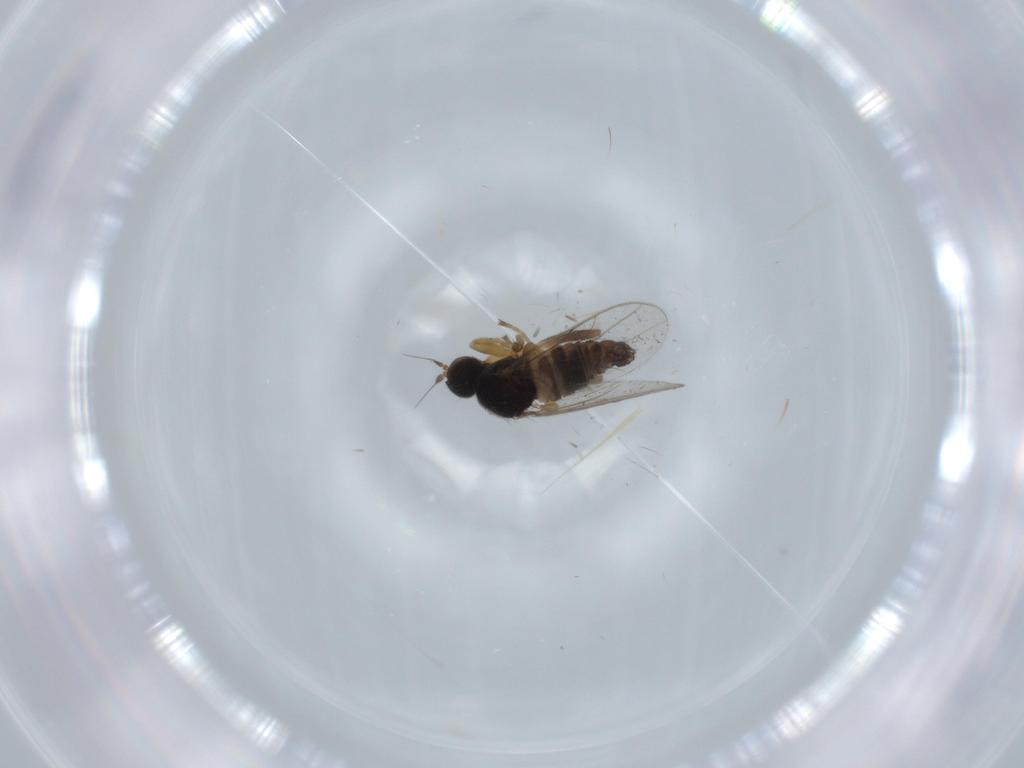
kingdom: Animalia
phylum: Arthropoda
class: Insecta
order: Diptera
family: Hybotidae
